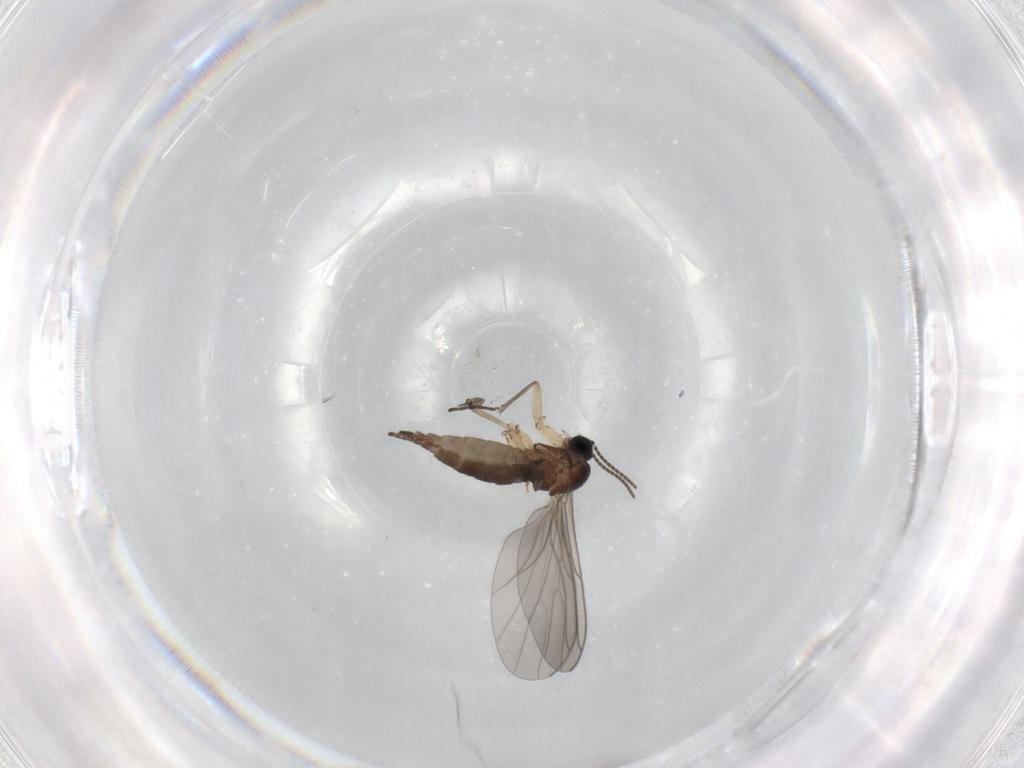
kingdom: Animalia
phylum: Arthropoda
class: Insecta
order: Diptera
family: Sciaridae
